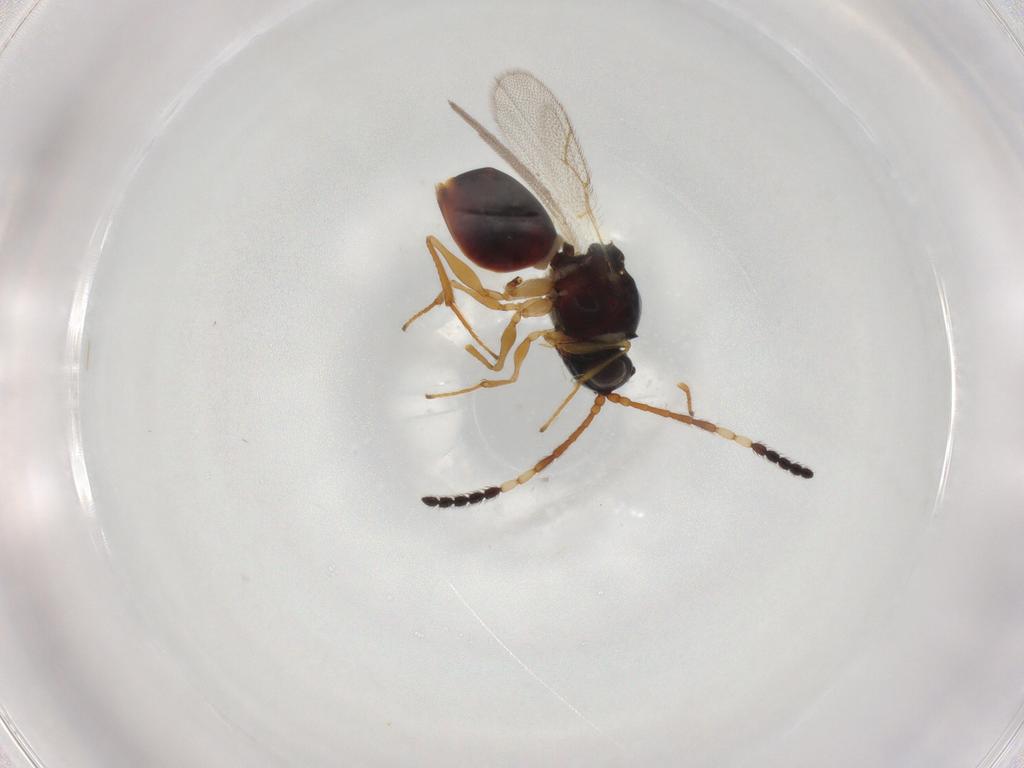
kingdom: Animalia
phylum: Arthropoda
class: Insecta
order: Hymenoptera
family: Figitidae
